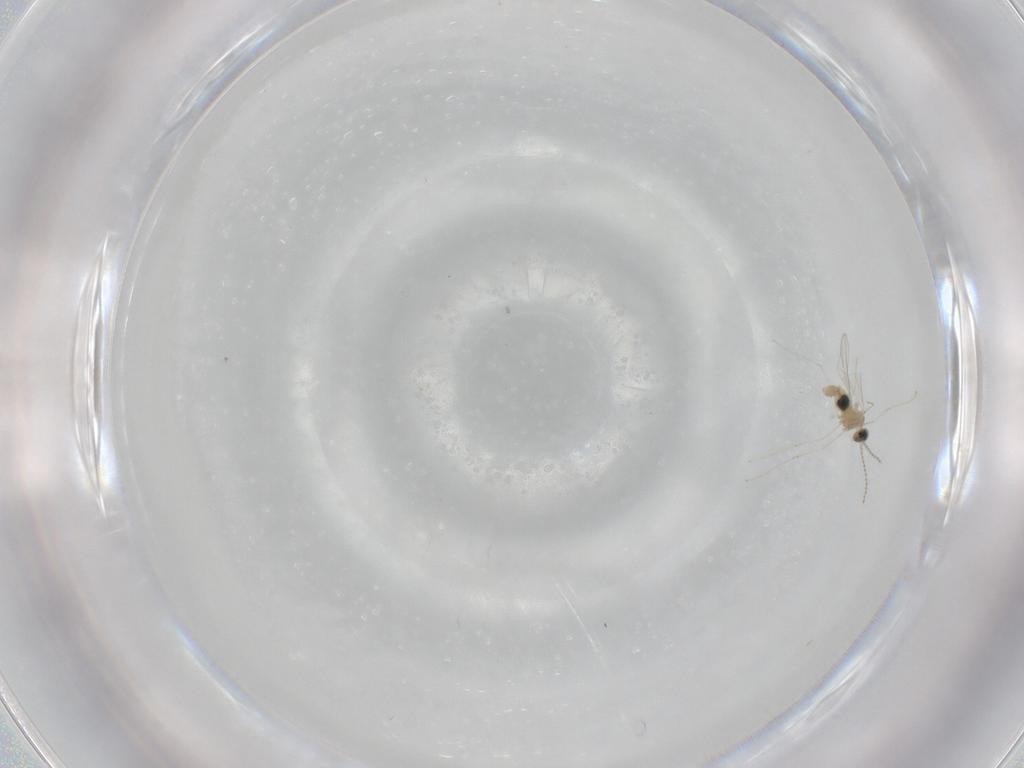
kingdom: Animalia
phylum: Arthropoda
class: Insecta
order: Diptera
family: Cecidomyiidae
